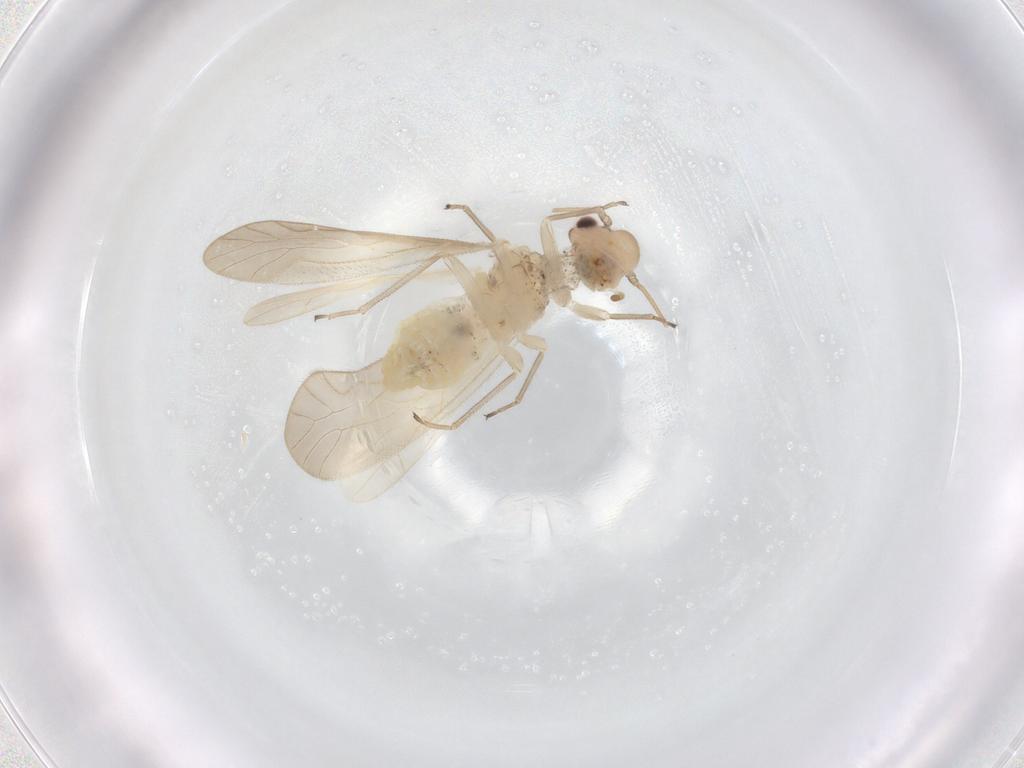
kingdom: Animalia
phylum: Arthropoda
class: Insecta
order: Psocodea
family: Caeciliusidae
